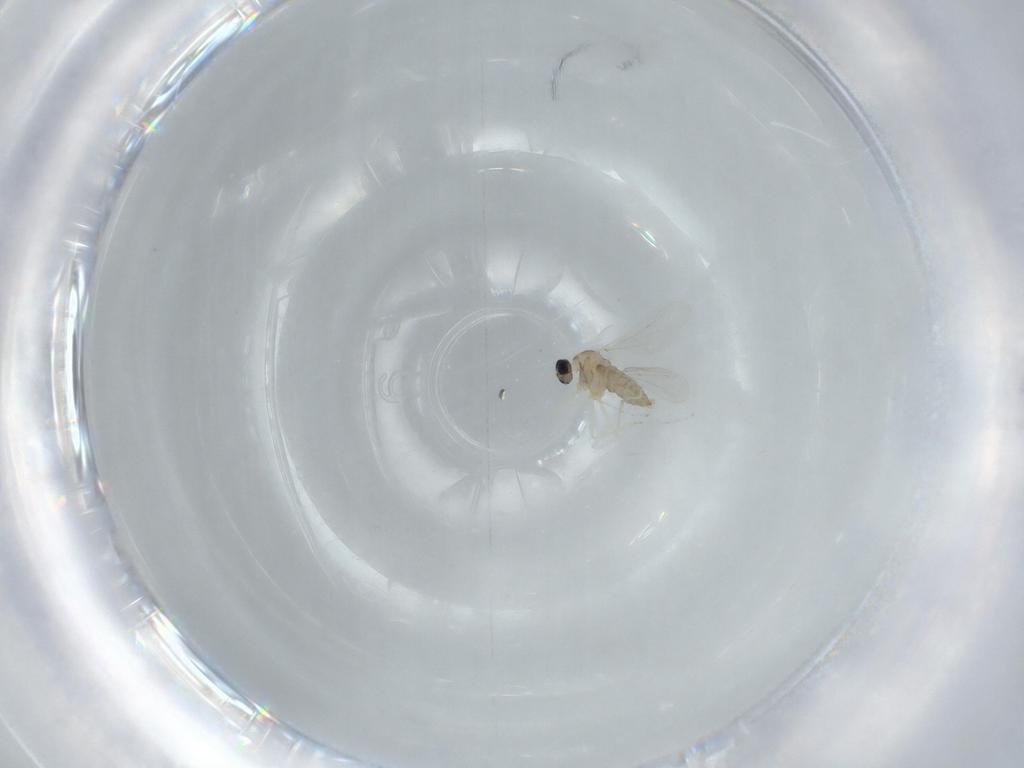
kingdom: Animalia
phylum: Arthropoda
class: Insecta
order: Diptera
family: Cecidomyiidae
